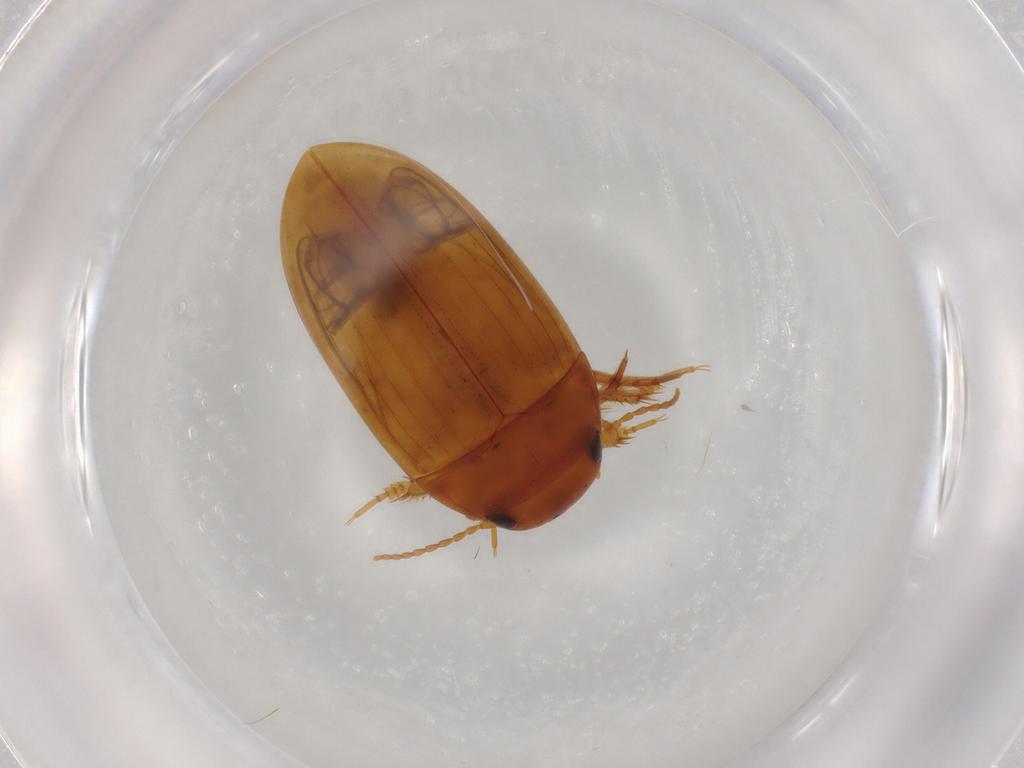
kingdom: Animalia
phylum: Arthropoda
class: Insecta
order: Coleoptera
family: Dytiscidae
